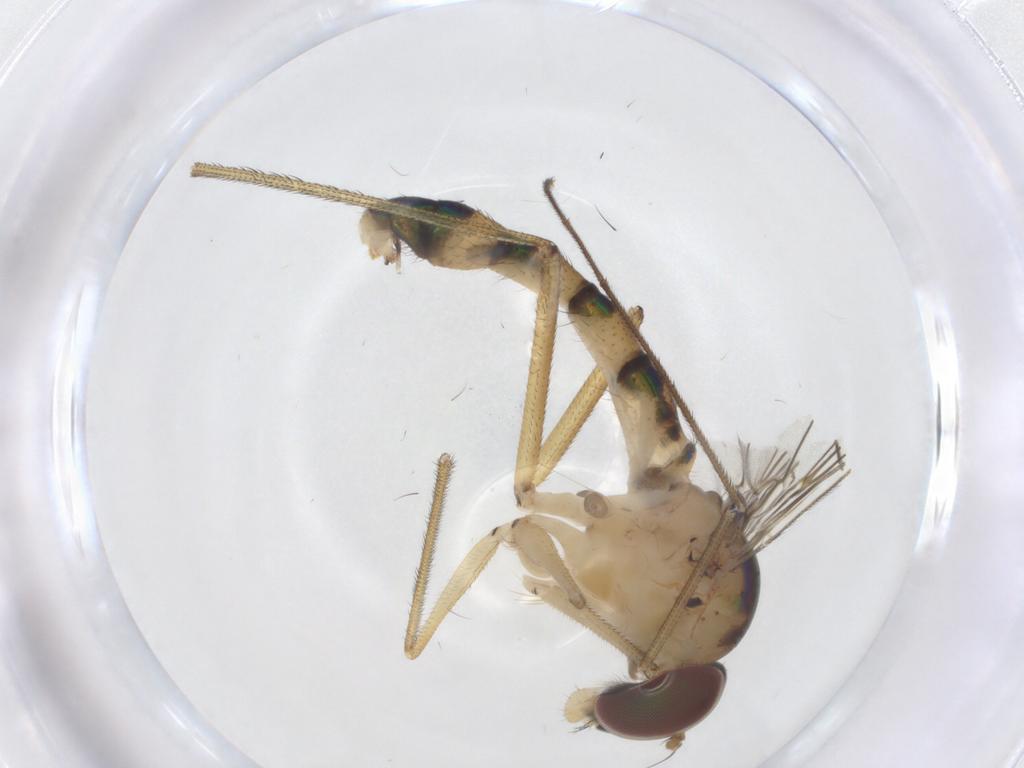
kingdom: Animalia
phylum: Arthropoda
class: Insecta
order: Diptera
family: Dolichopodidae
